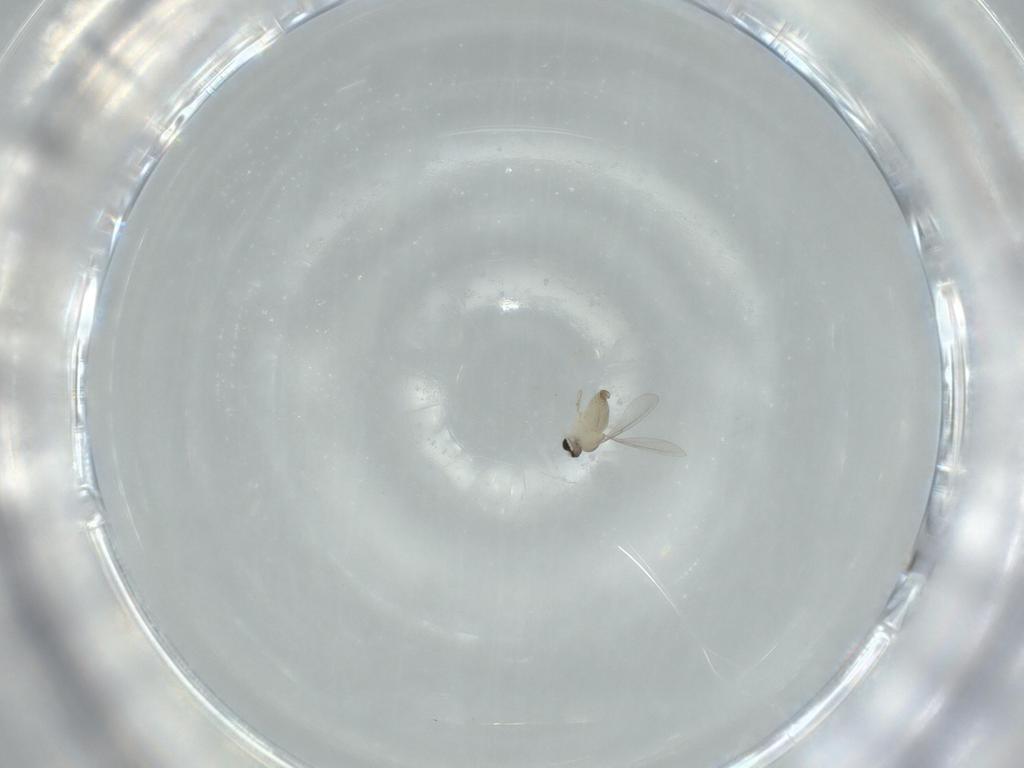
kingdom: Animalia
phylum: Arthropoda
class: Insecta
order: Diptera
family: Cecidomyiidae
